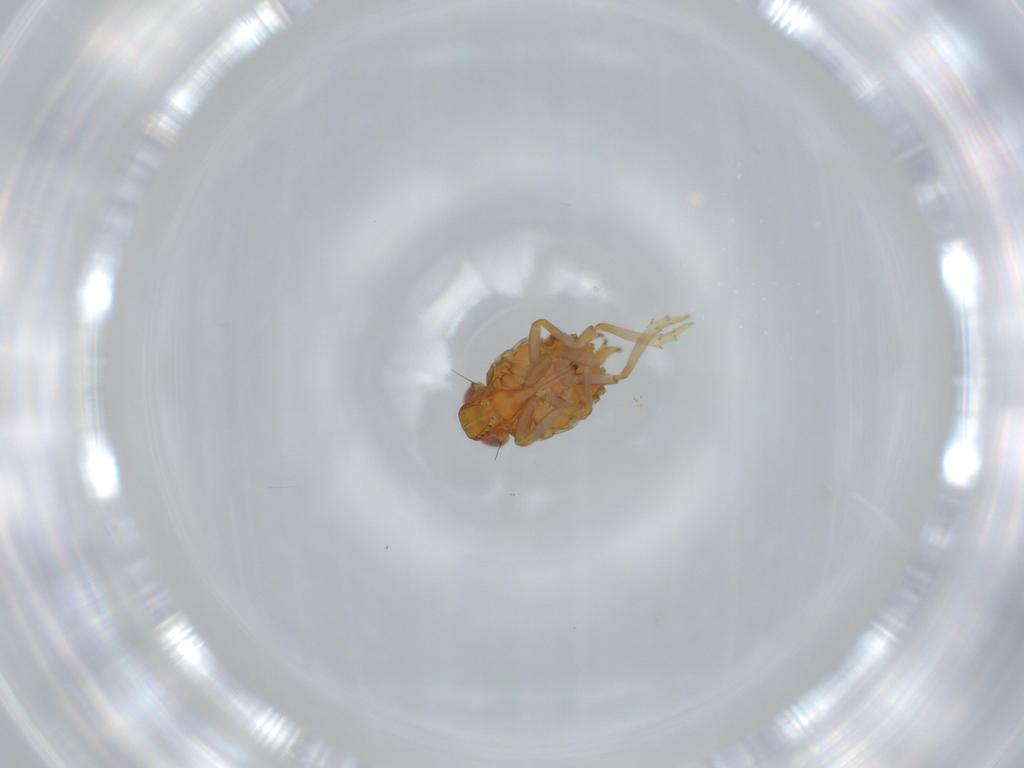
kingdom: Animalia
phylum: Arthropoda
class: Insecta
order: Hemiptera
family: Issidae
